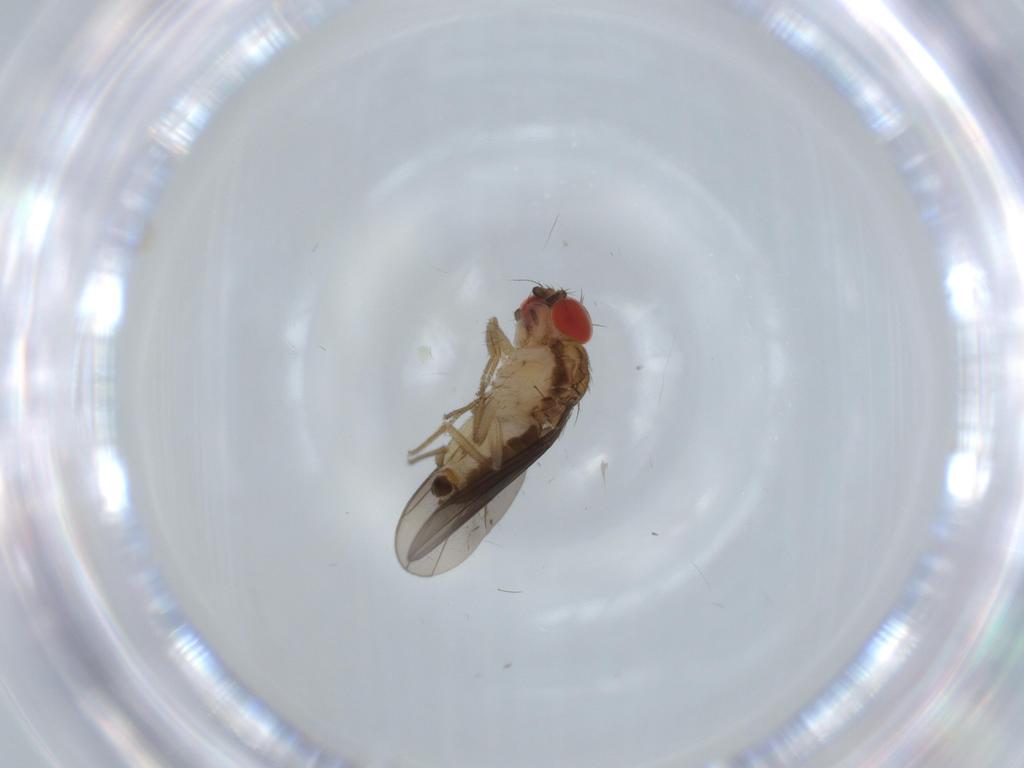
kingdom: Animalia
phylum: Arthropoda
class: Insecta
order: Diptera
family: Drosophilidae
